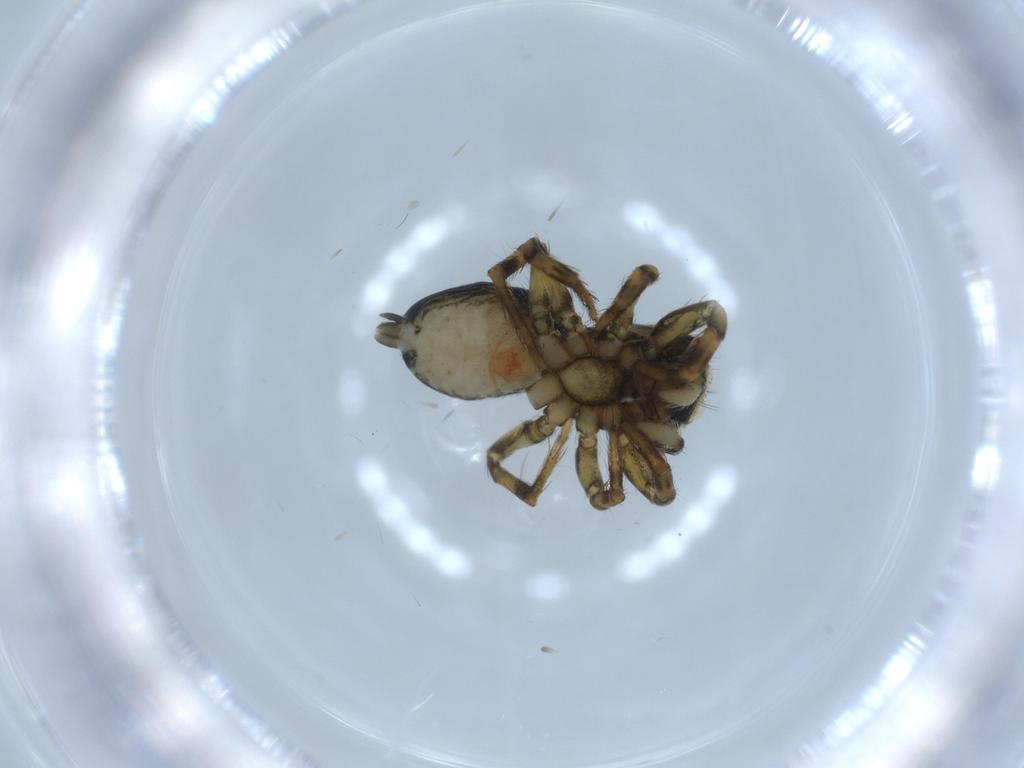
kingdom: Animalia
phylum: Arthropoda
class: Arachnida
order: Araneae
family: Salticidae
